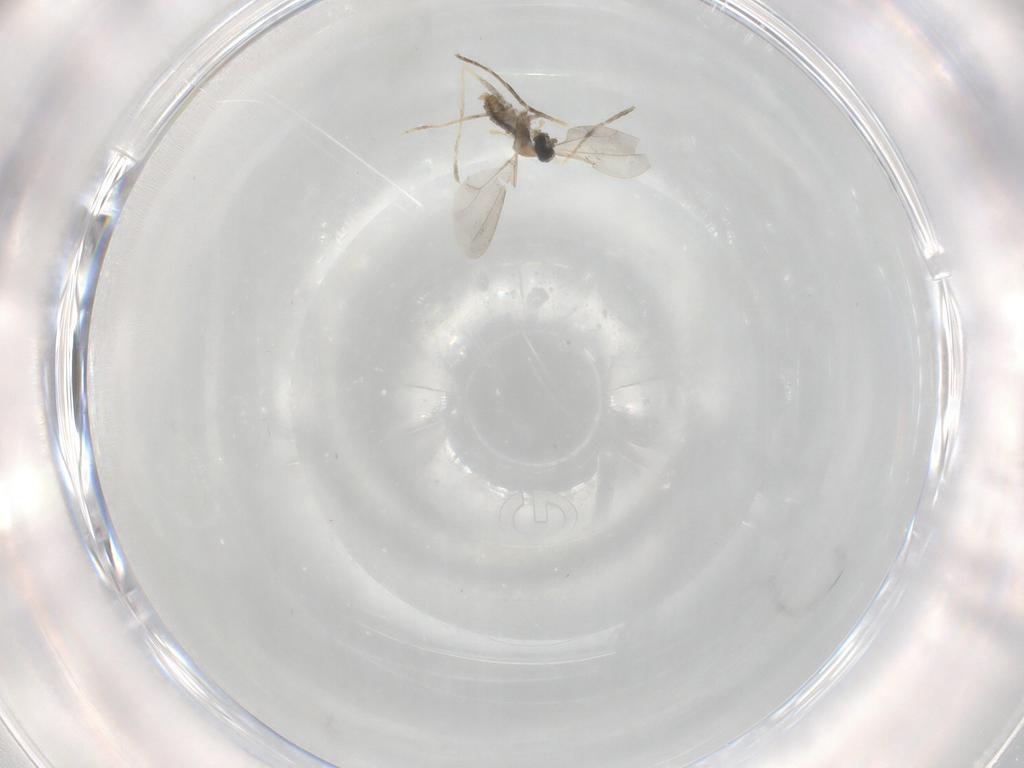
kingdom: Animalia
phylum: Arthropoda
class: Insecta
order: Diptera
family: Cecidomyiidae
